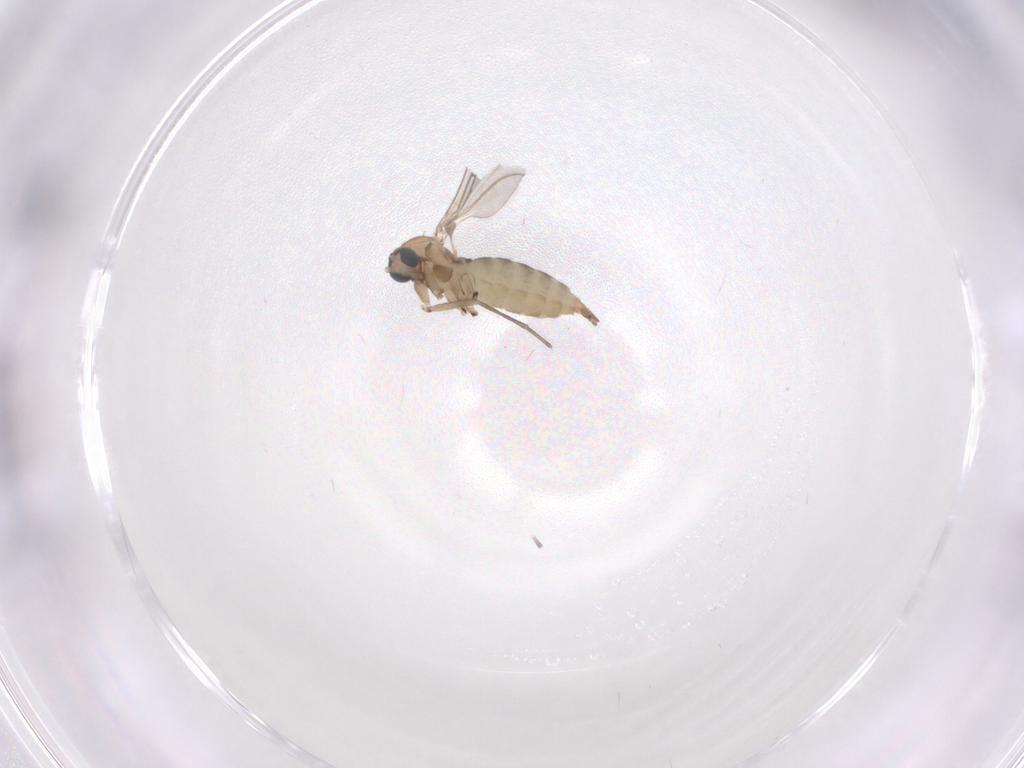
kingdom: Animalia
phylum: Arthropoda
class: Insecta
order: Diptera
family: Sciaridae
